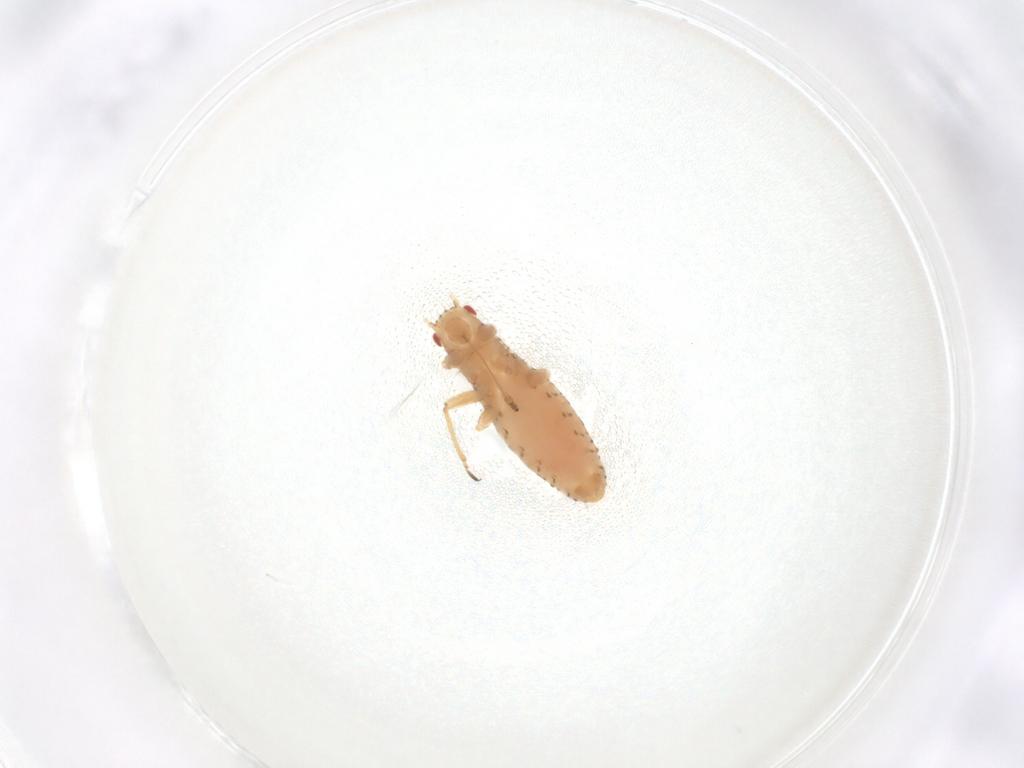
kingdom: Animalia
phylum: Arthropoda
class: Insecta
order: Hemiptera
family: Lachnidae
